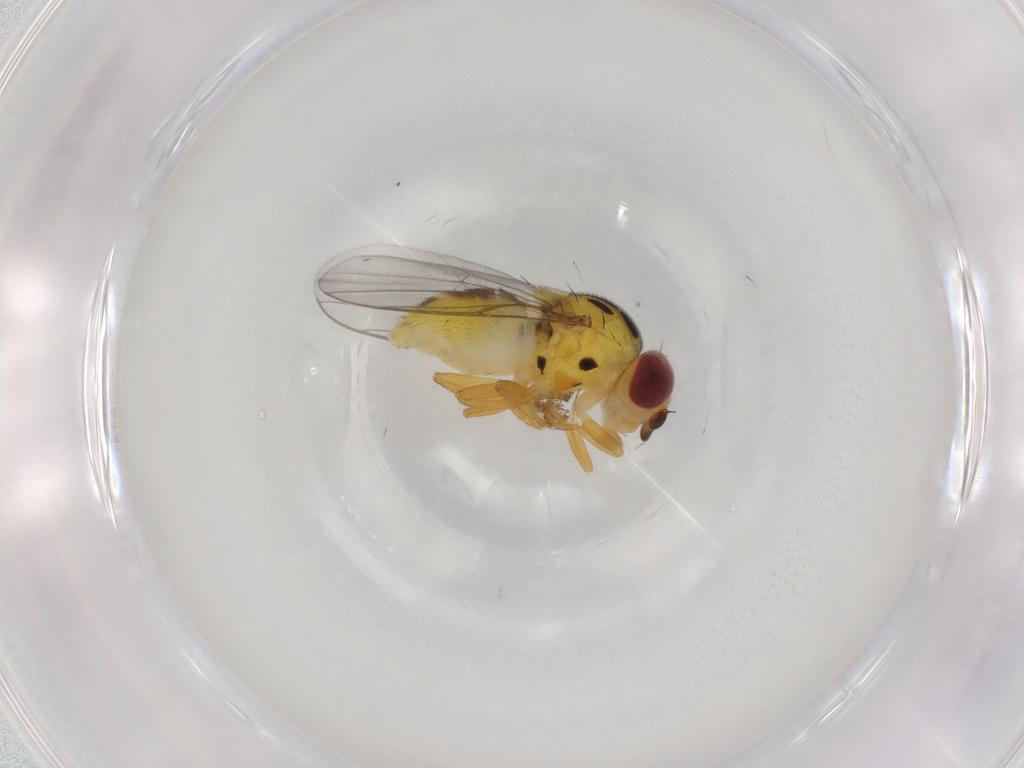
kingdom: Animalia
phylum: Arthropoda
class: Insecta
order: Diptera
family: Chloropidae
